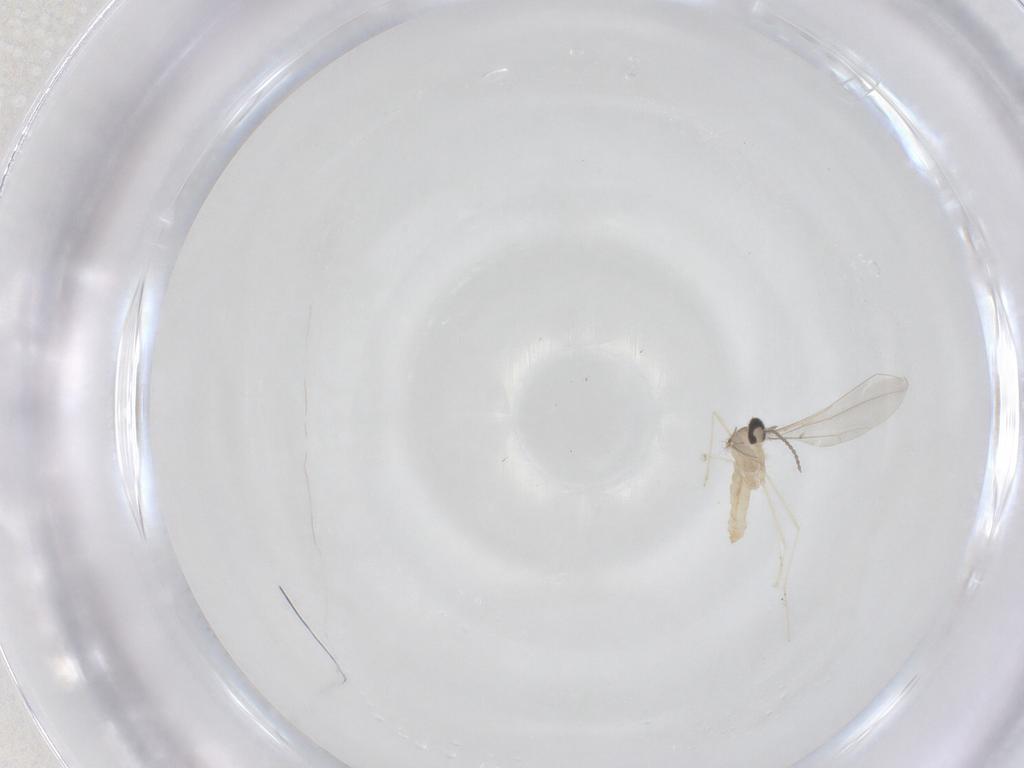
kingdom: Animalia
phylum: Arthropoda
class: Insecta
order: Diptera
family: Cecidomyiidae
